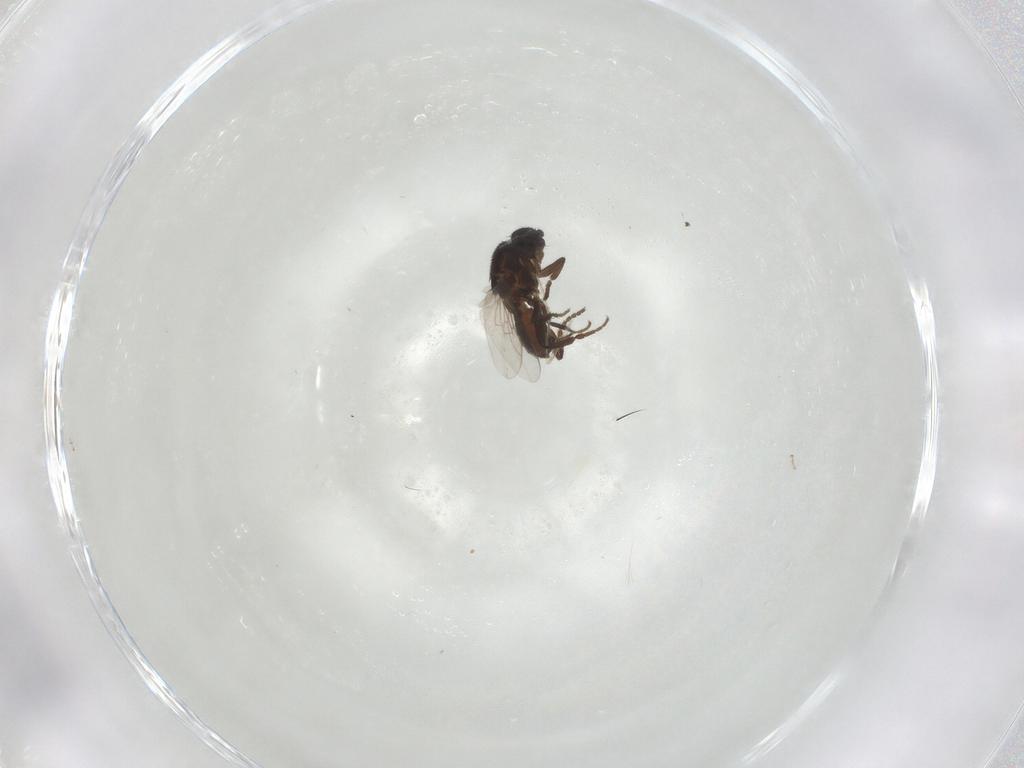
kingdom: Animalia
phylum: Arthropoda
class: Insecta
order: Diptera
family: Sphaeroceridae
